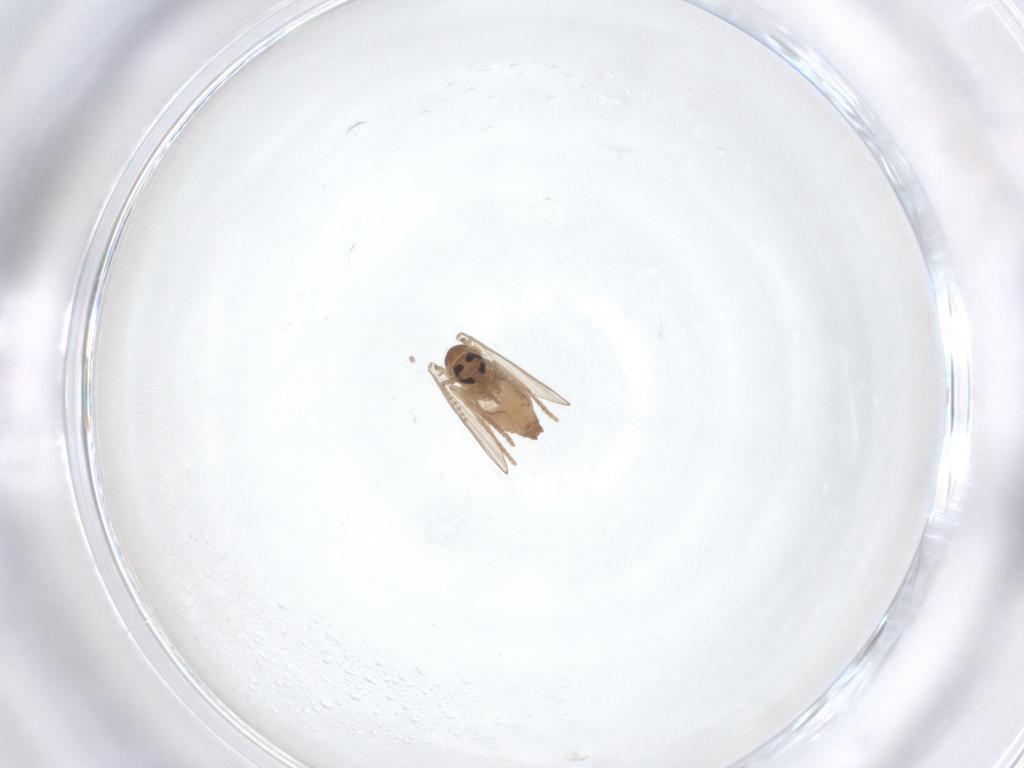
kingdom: Animalia
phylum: Arthropoda
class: Insecta
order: Diptera
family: Psychodidae
